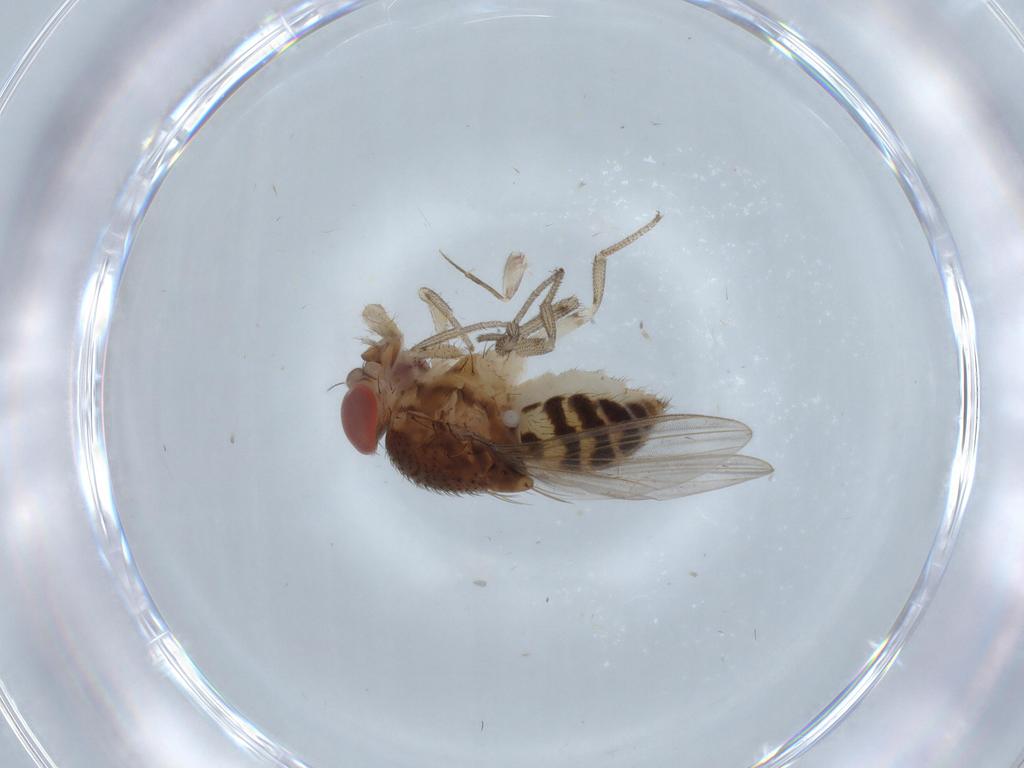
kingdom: Animalia
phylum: Arthropoda
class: Insecta
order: Diptera
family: Drosophilidae
